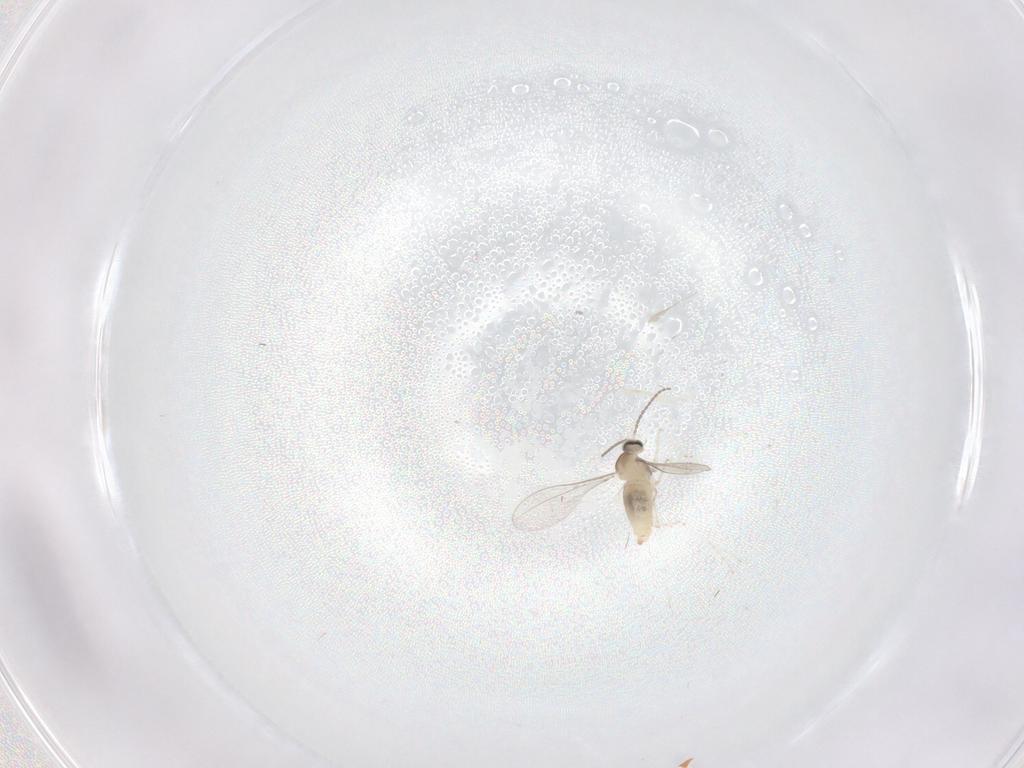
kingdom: Animalia
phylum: Arthropoda
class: Insecta
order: Diptera
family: Cecidomyiidae
